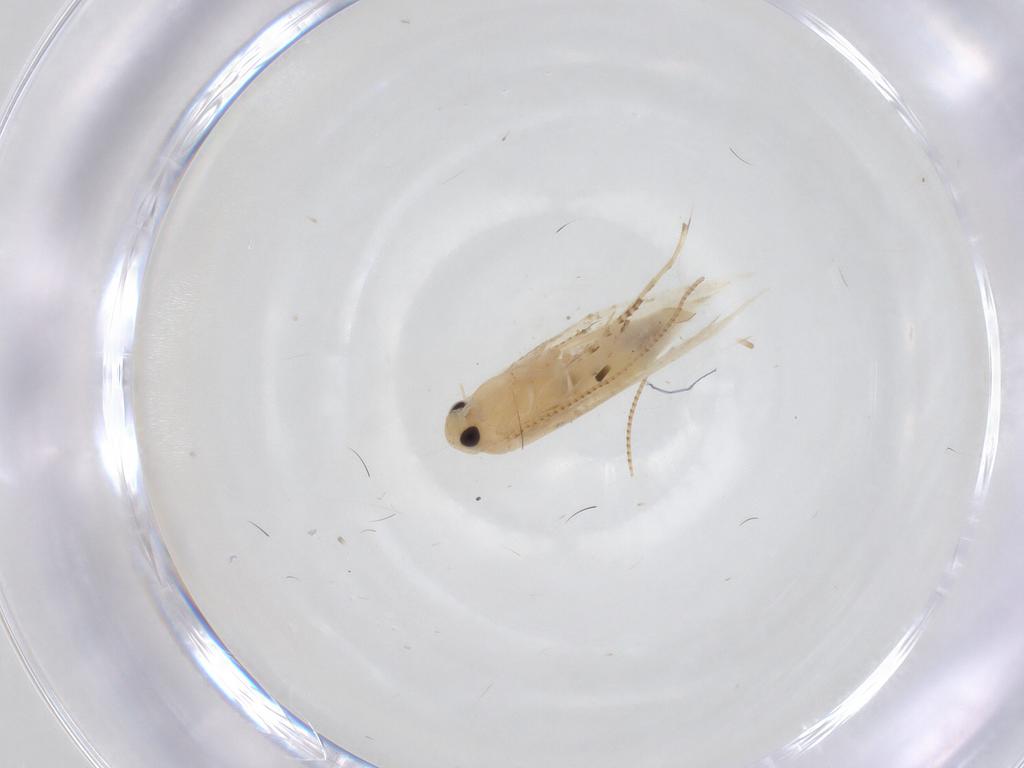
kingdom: Animalia
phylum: Arthropoda
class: Insecta
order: Lepidoptera
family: Gracillariidae
